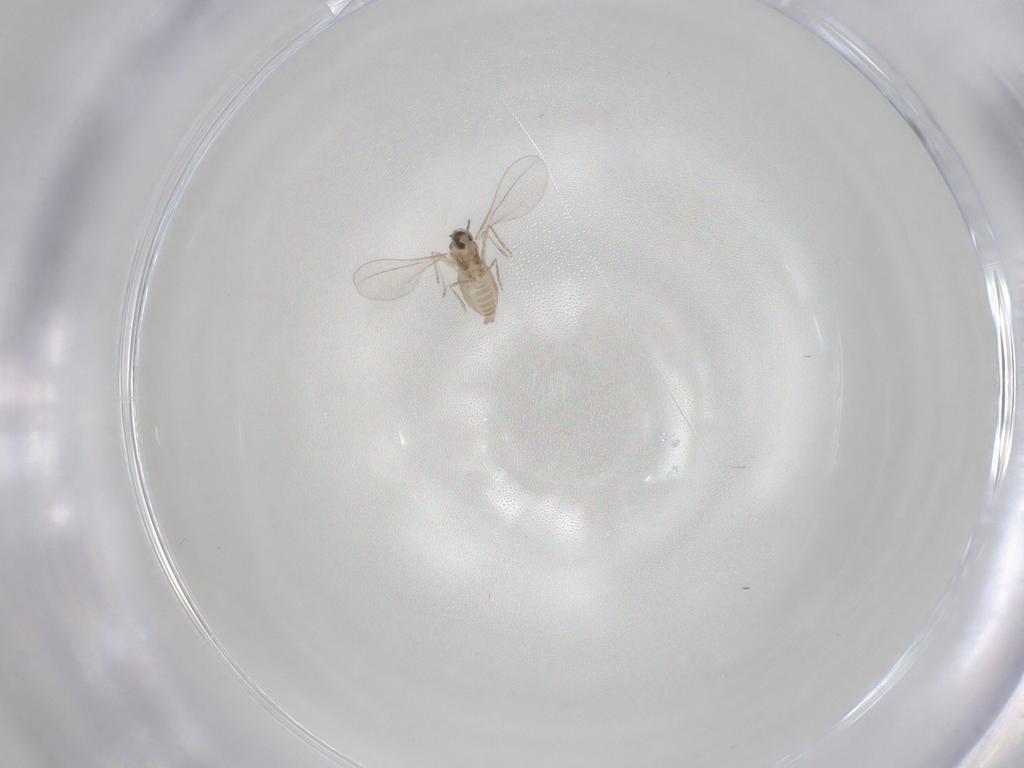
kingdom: Animalia
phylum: Arthropoda
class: Insecta
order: Diptera
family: Cecidomyiidae
